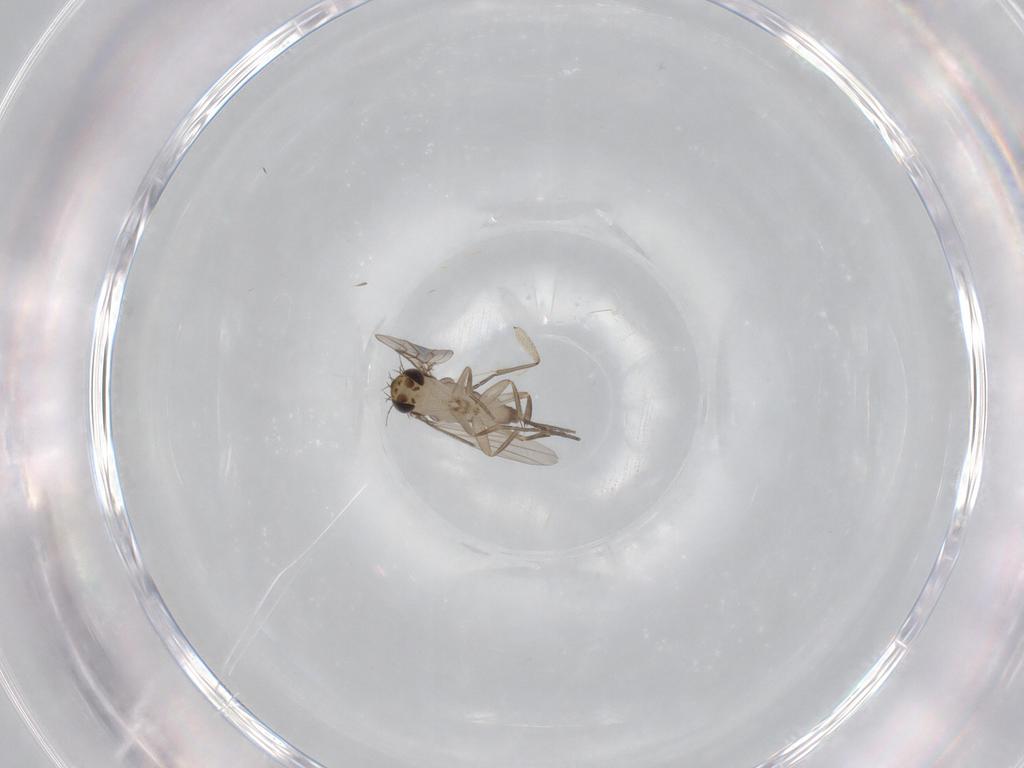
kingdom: Animalia
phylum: Arthropoda
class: Insecta
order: Diptera
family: Phoridae
